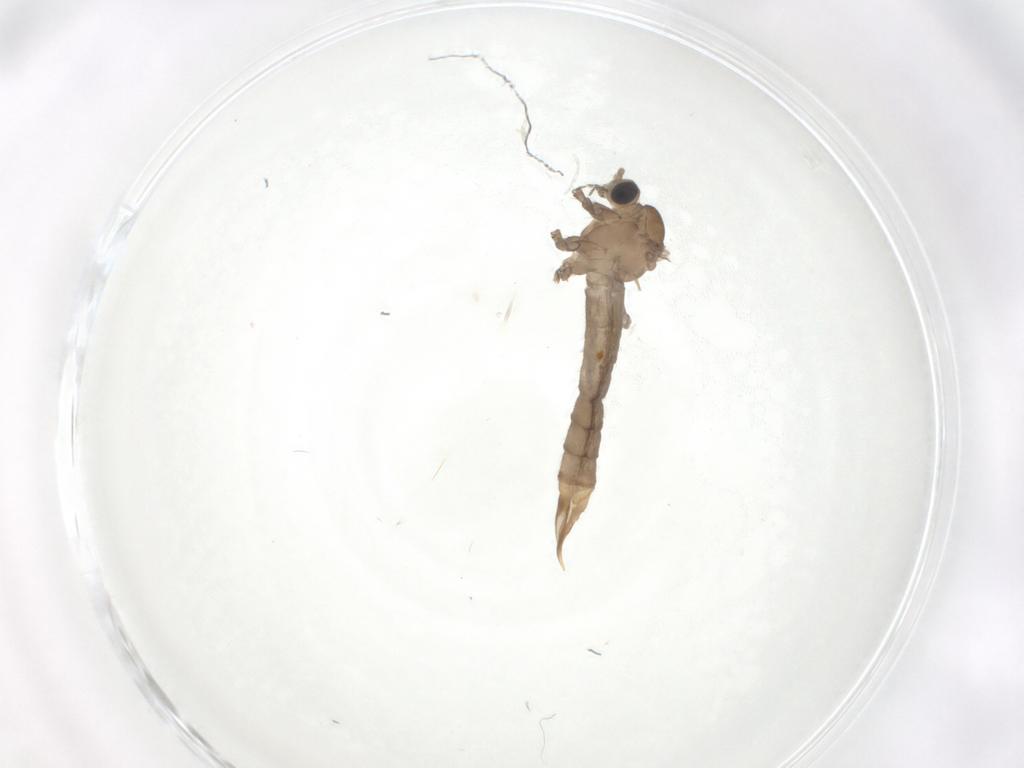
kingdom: Animalia
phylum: Arthropoda
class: Insecta
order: Diptera
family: Limoniidae
